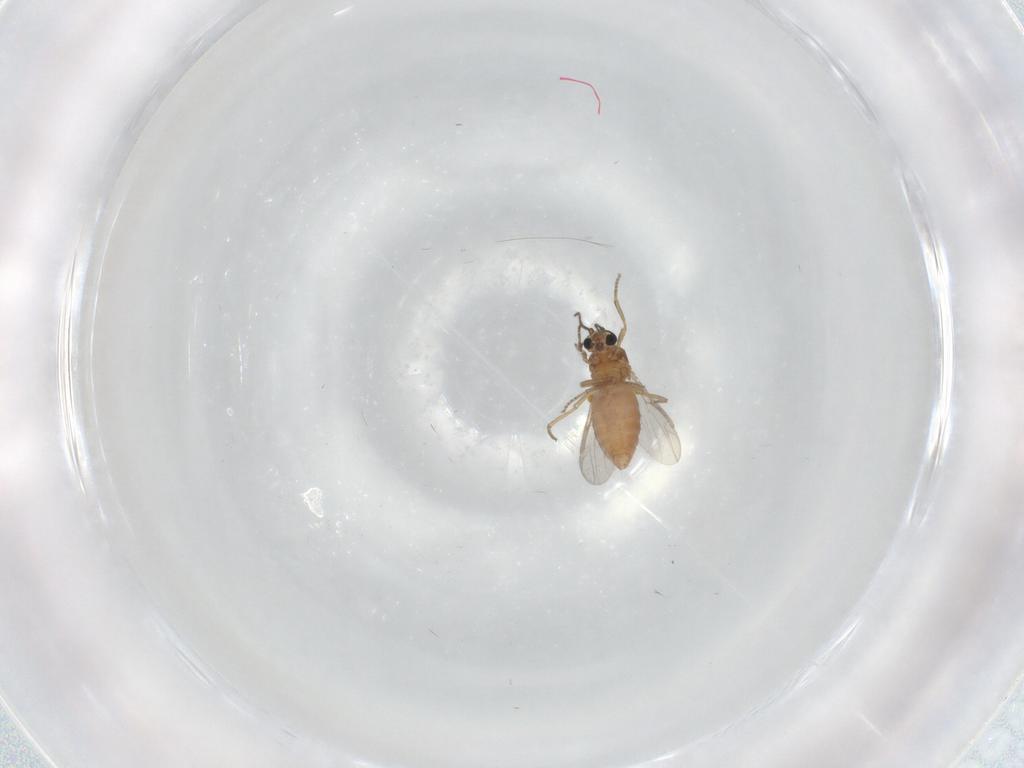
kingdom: Animalia
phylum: Arthropoda
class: Insecta
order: Diptera
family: Ceratopogonidae
